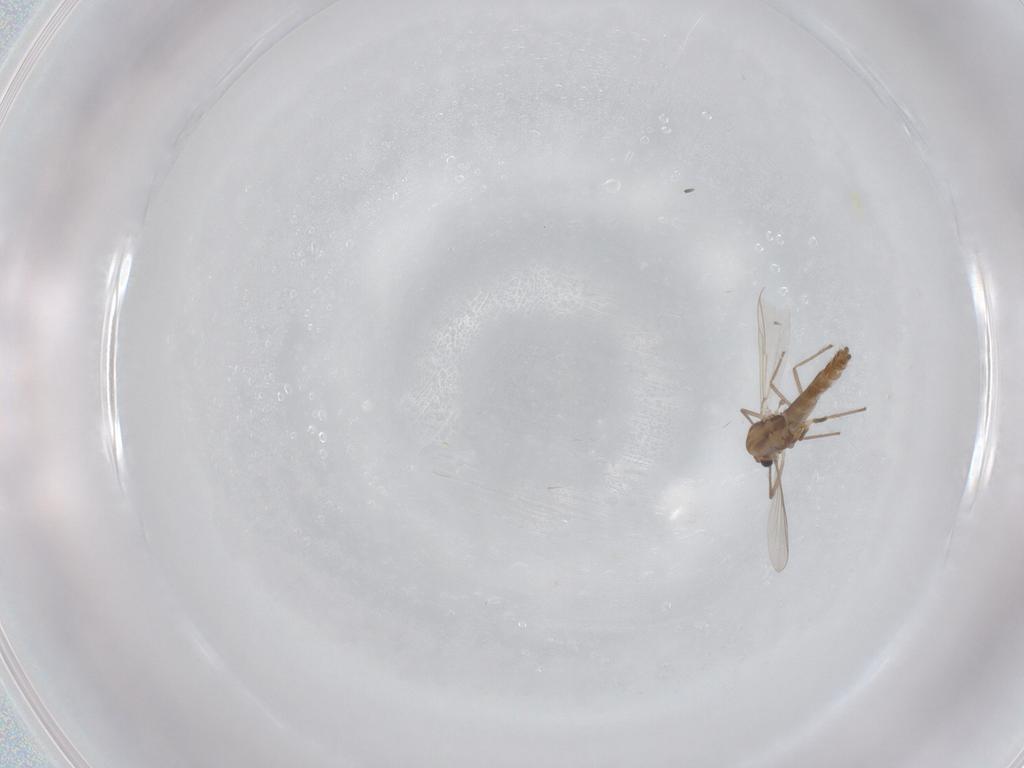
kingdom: Animalia
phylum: Arthropoda
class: Insecta
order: Diptera
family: Chironomidae
